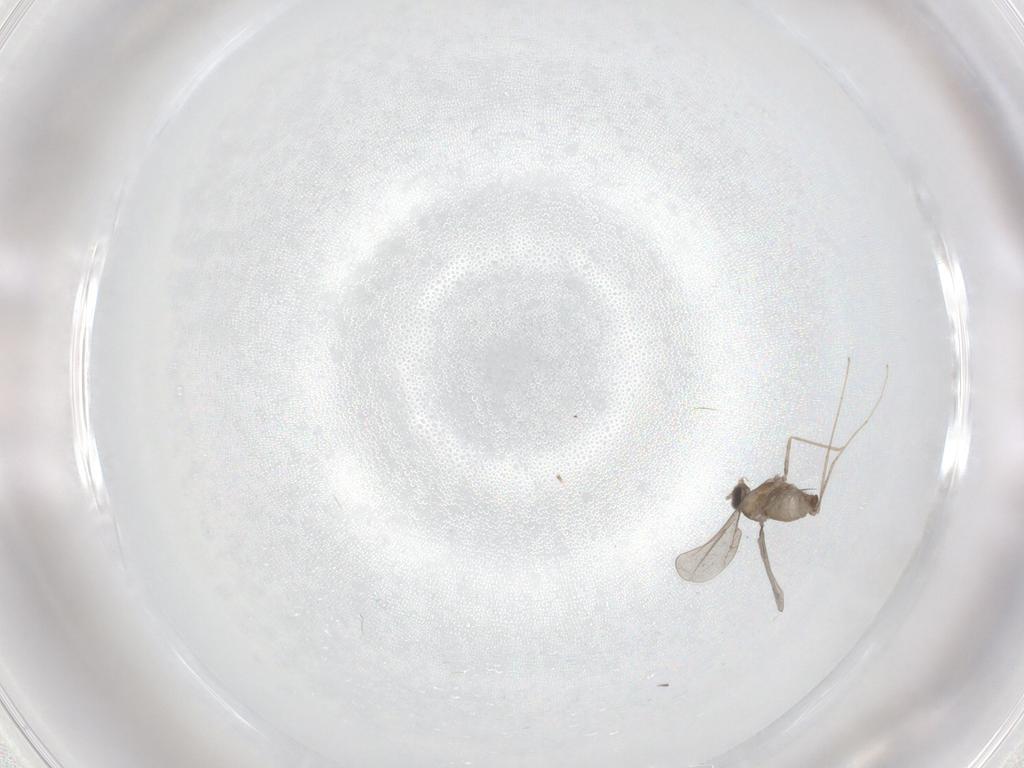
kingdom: Animalia
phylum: Arthropoda
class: Insecta
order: Diptera
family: Cecidomyiidae
